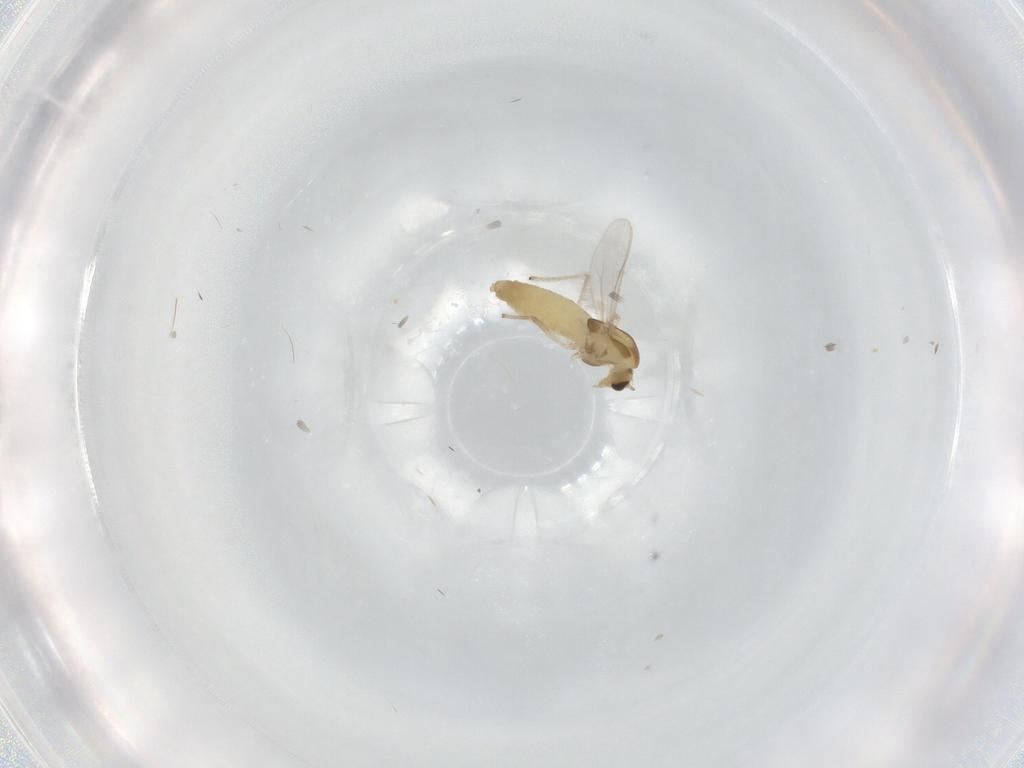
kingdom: Animalia
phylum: Arthropoda
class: Insecta
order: Diptera
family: Chironomidae
